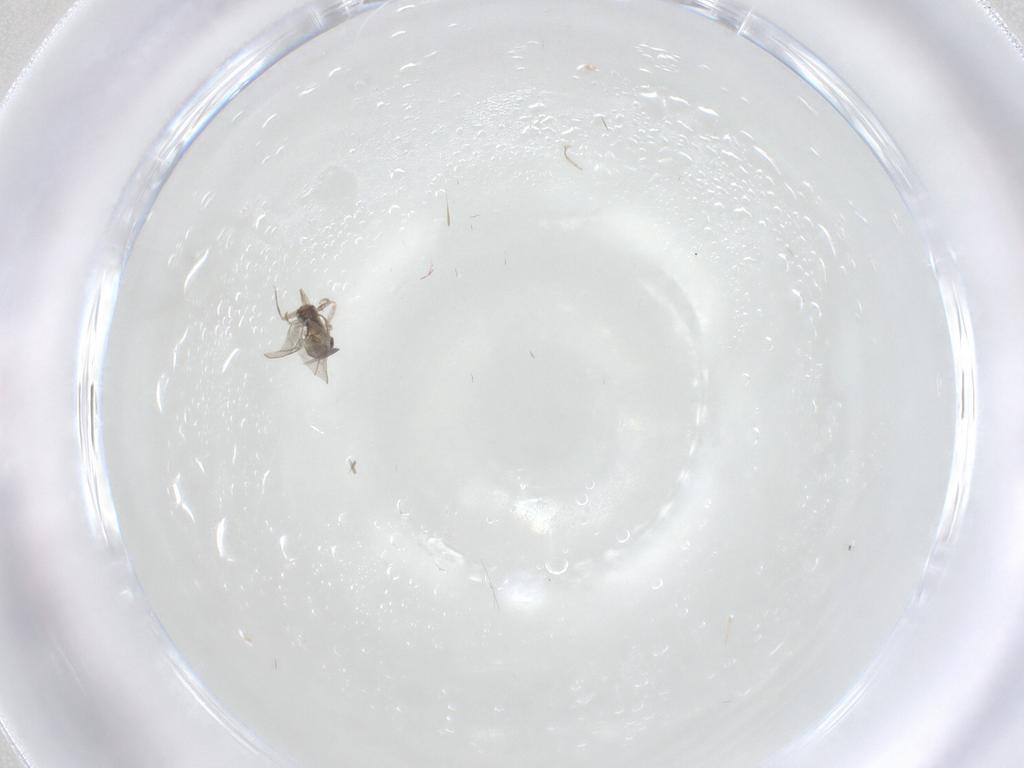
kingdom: Animalia
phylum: Arthropoda
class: Insecta
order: Diptera
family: Cecidomyiidae
